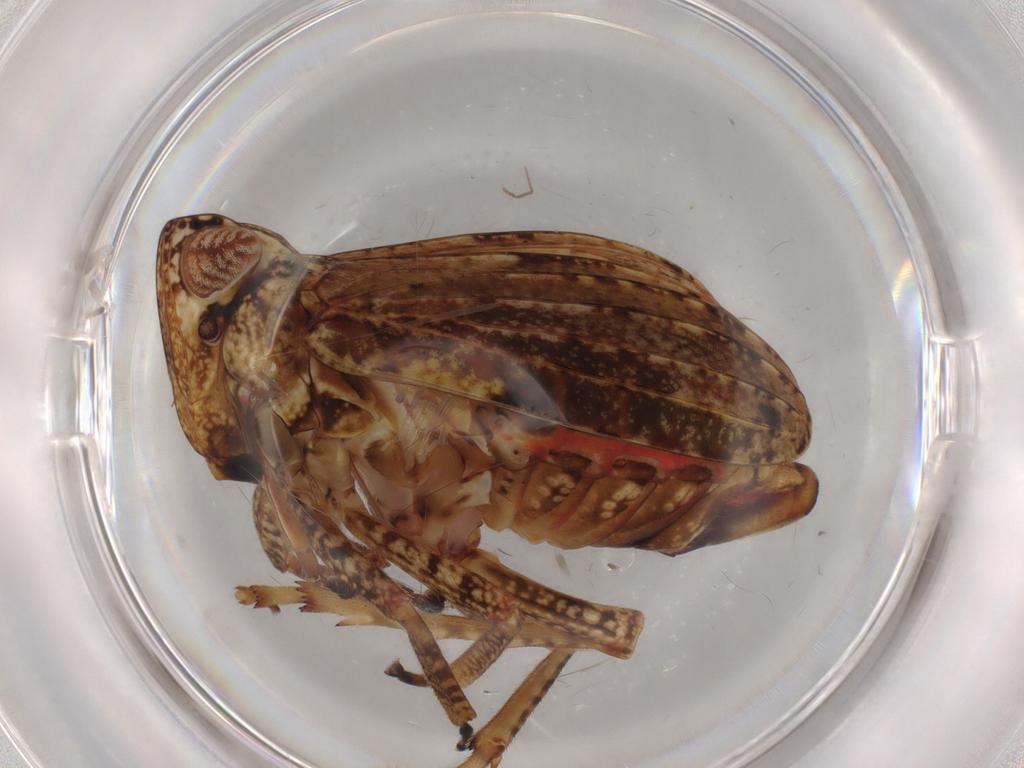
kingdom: Animalia
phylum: Arthropoda
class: Insecta
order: Hemiptera
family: Tropiduchidae
